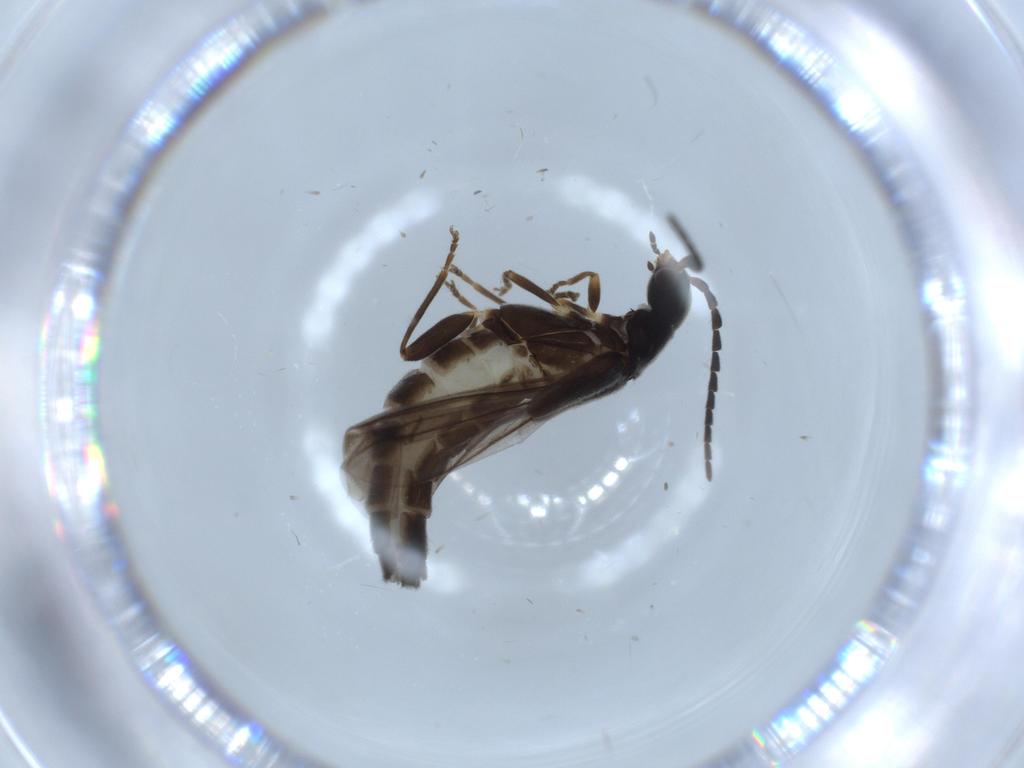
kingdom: Animalia
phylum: Arthropoda
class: Insecta
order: Coleoptera
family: Cantharidae
